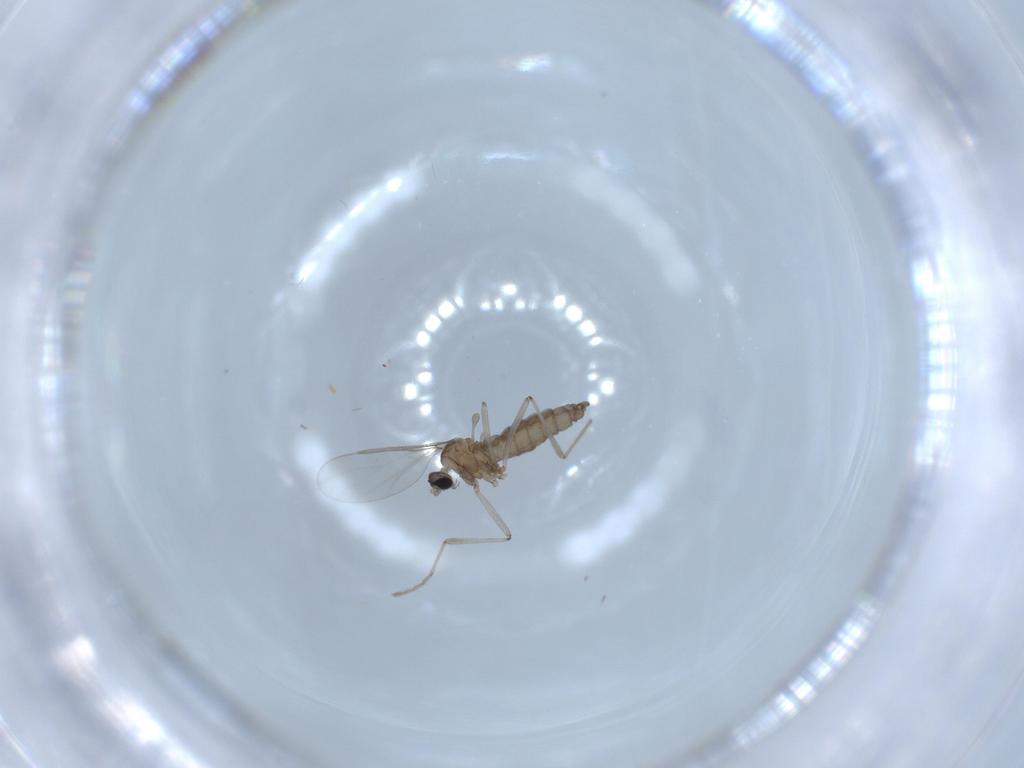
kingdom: Animalia
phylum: Arthropoda
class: Insecta
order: Diptera
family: Cecidomyiidae
